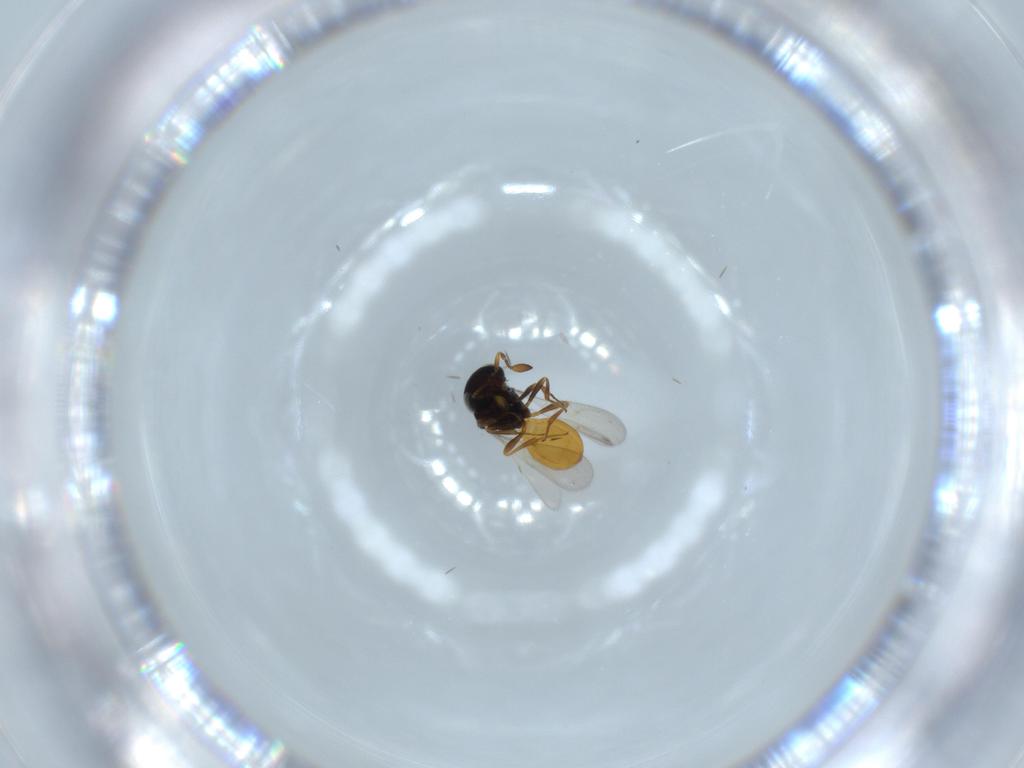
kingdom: Animalia
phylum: Arthropoda
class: Insecta
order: Hymenoptera
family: Scelionidae
